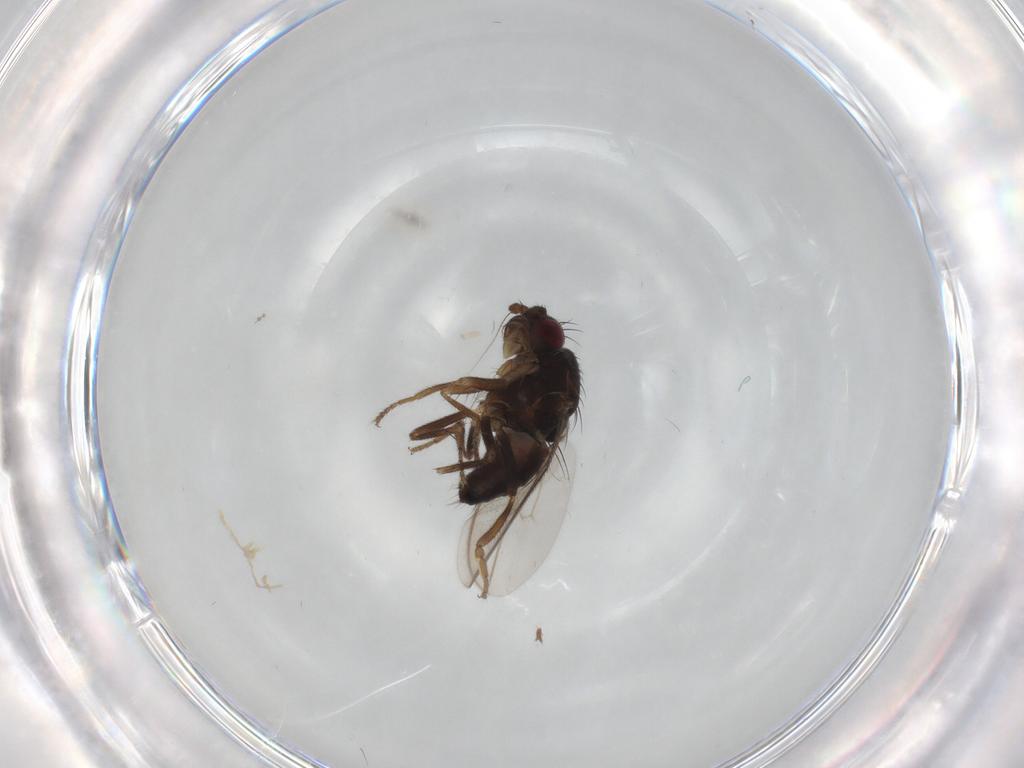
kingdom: Animalia
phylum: Arthropoda
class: Insecta
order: Diptera
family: Sphaeroceridae
